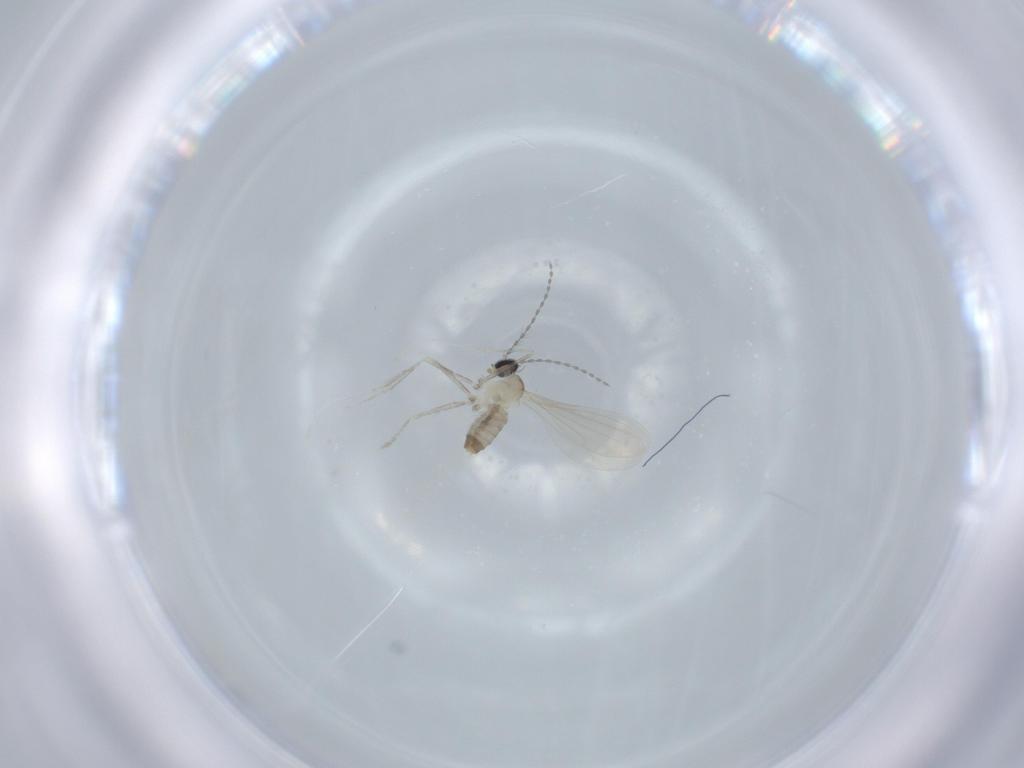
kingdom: Animalia
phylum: Arthropoda
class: Insecta
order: Diptera
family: Cecidomyiidae
